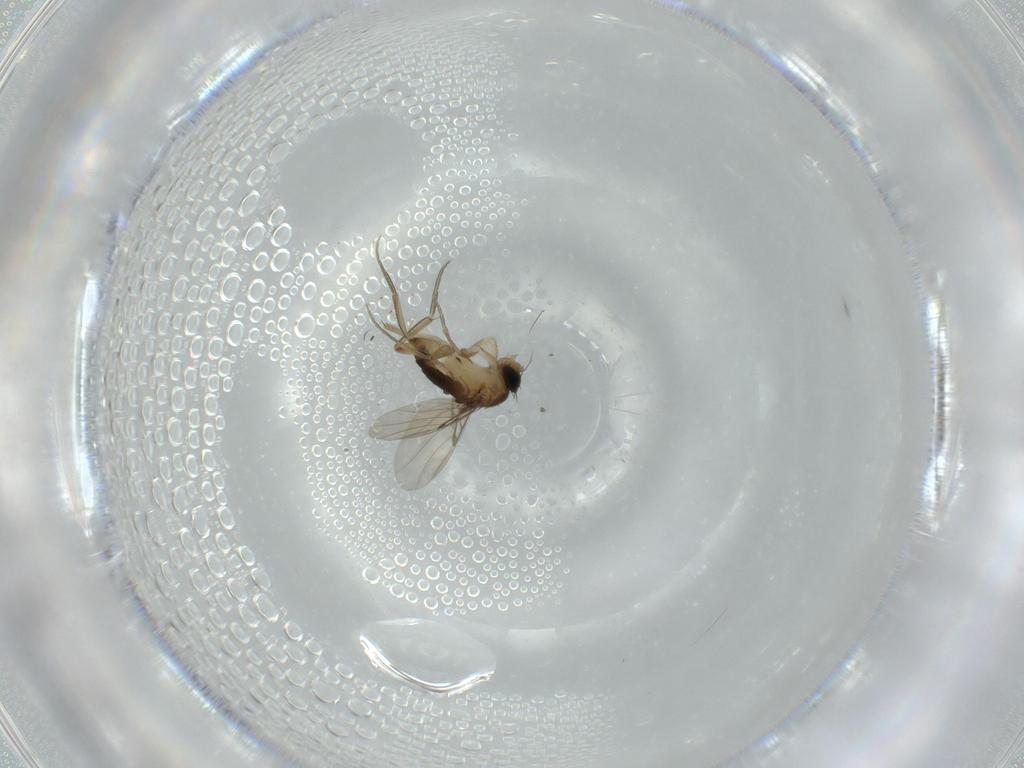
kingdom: Animalia
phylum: Arthropoda
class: Insecta
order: Diptera
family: Phoridae
